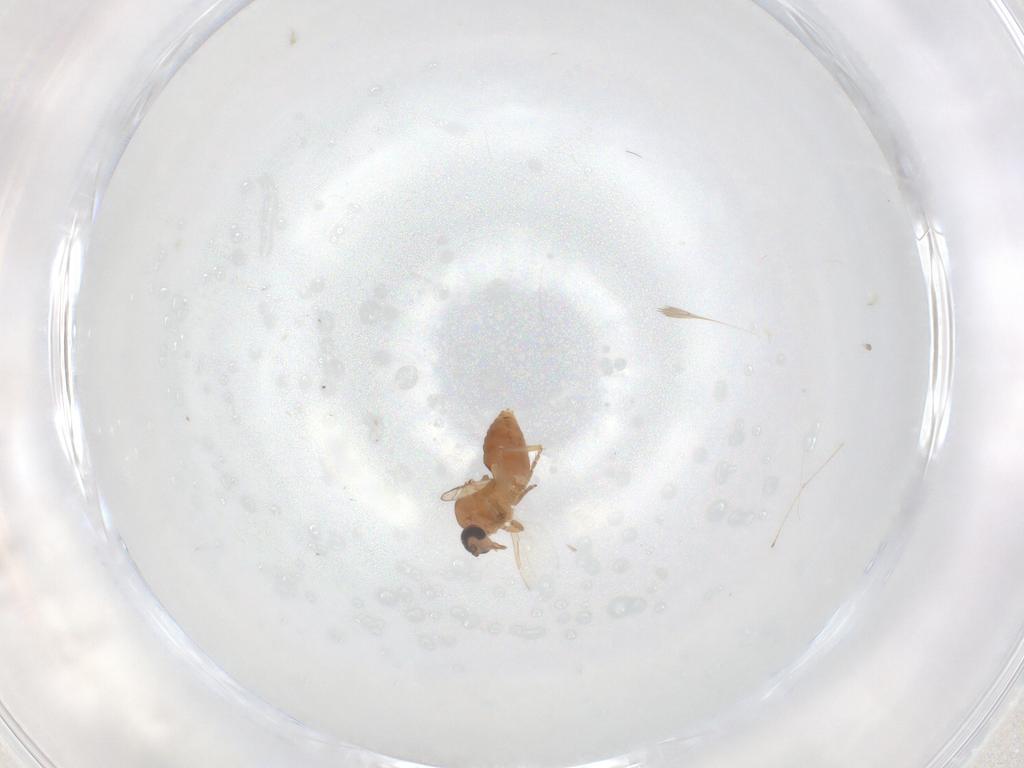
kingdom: Animalia
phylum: Arthropoda
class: Insecta
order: Diptera
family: Ceratopogonidae
